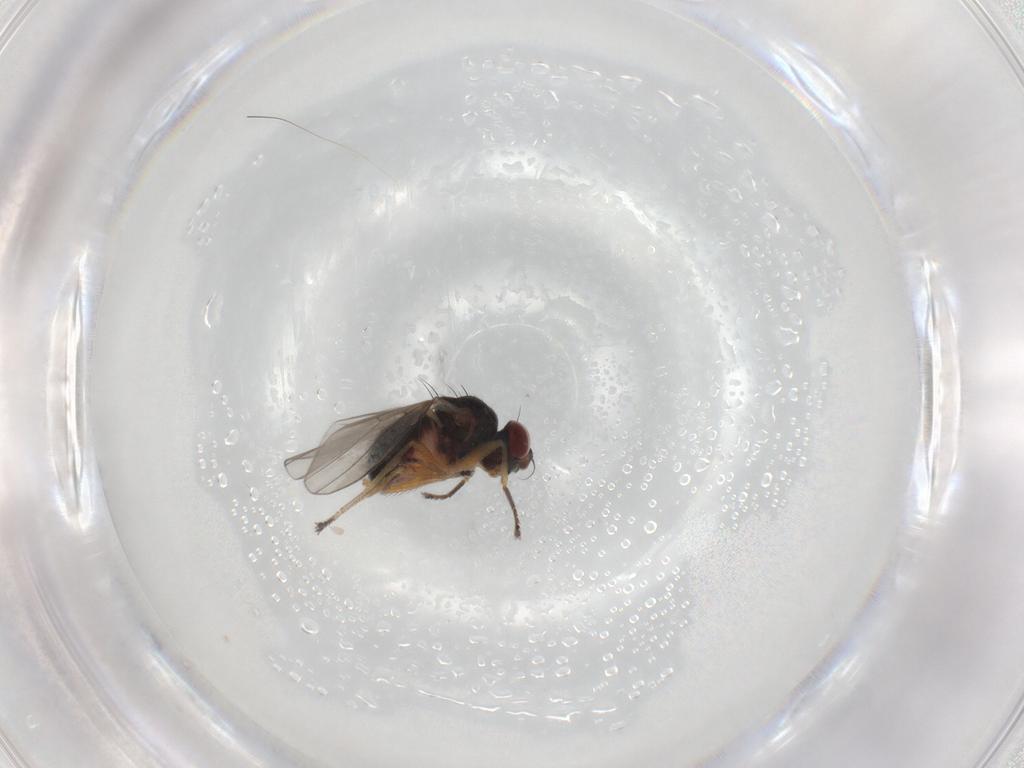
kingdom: Animalia
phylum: Arthropoda
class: Insecta
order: Diptera
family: Ephydridae
